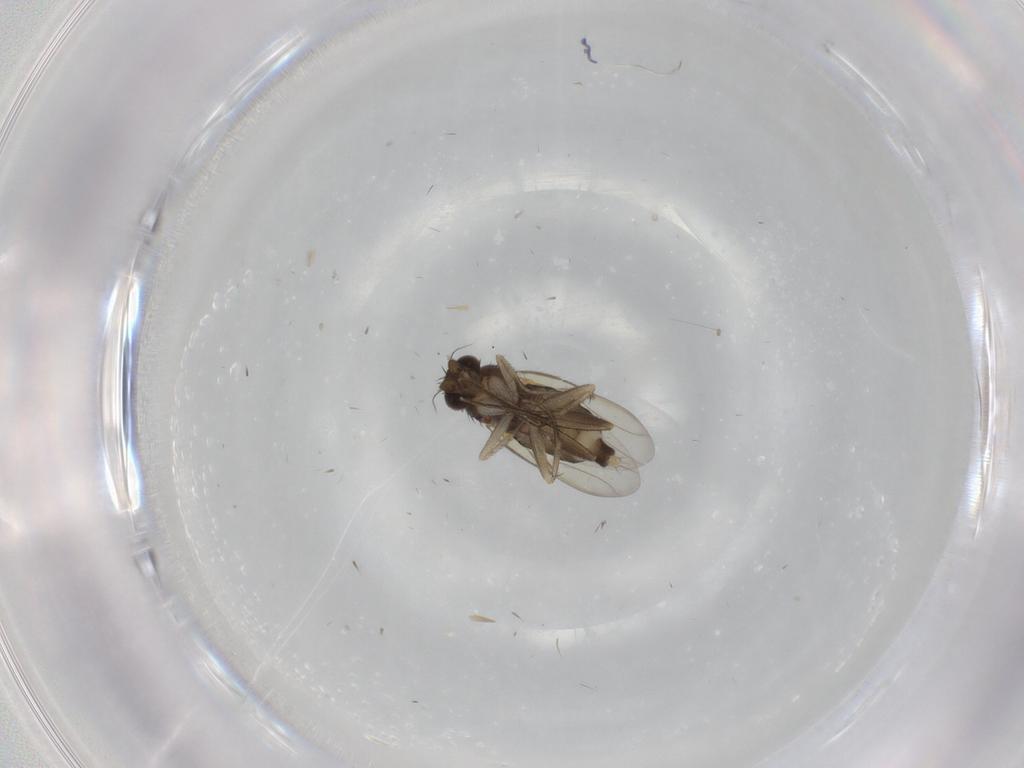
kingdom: Animalia
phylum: Arthropoda
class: Insecta
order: Diptera
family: Phoridae
